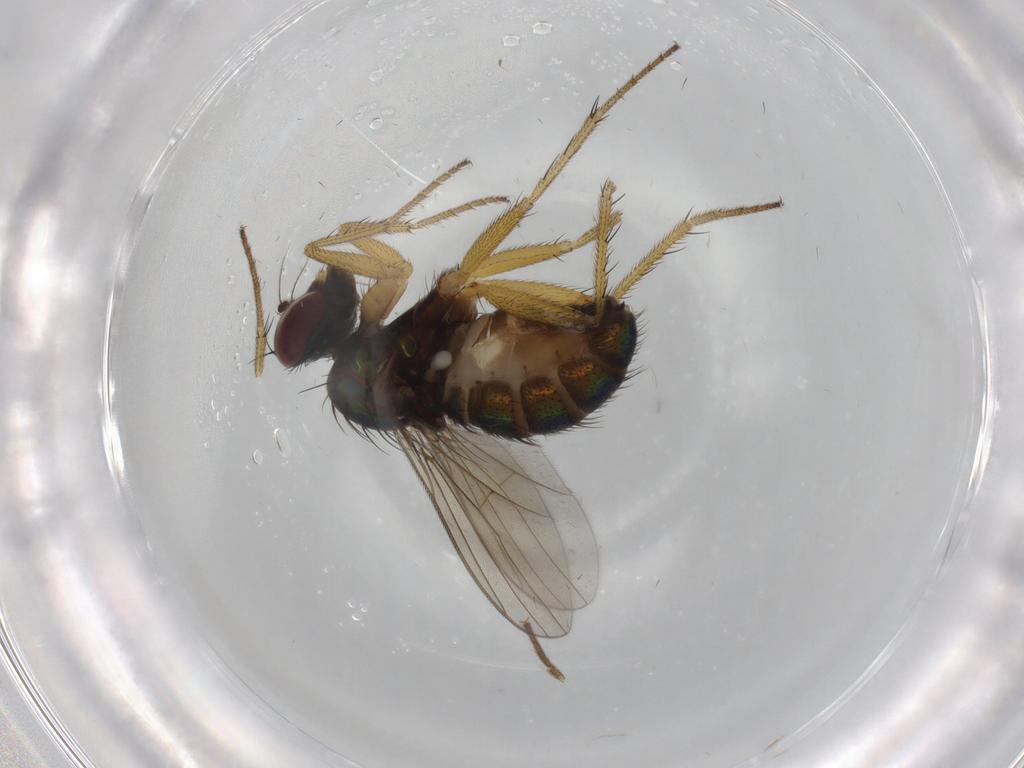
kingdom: Animalia
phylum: Arthropoda
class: Insecta
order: Diptera
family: Dolichopodidae
